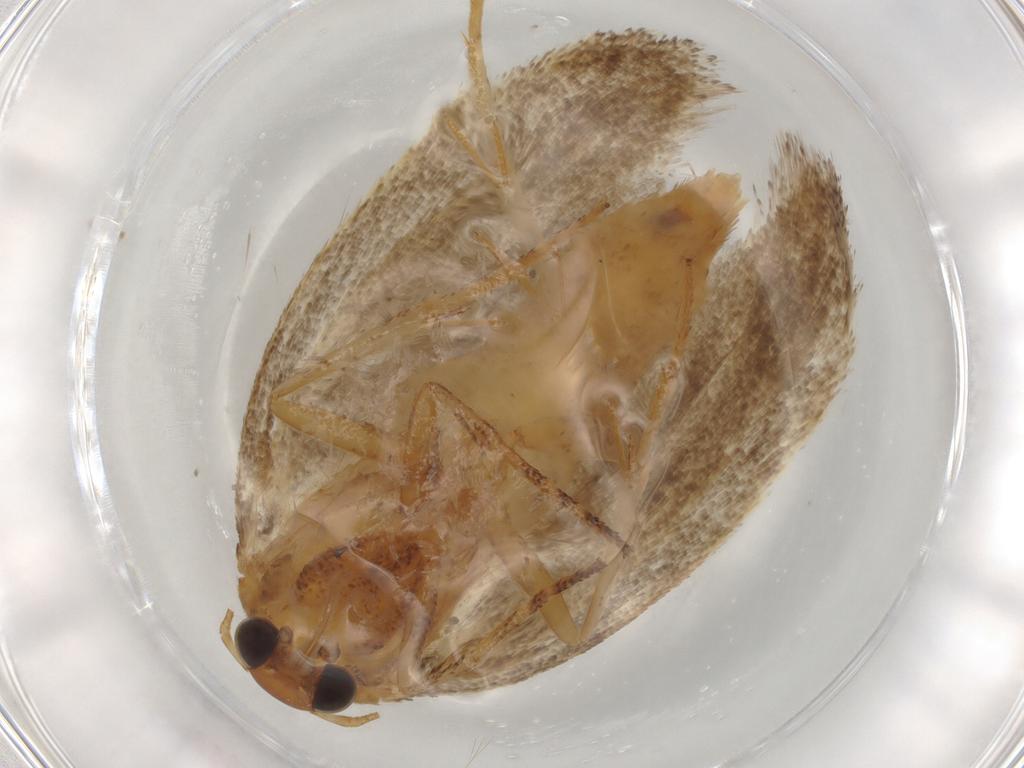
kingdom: Animalia
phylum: Arthropoda
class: Insecta
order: Lepidoptera
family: Oecophoridae
